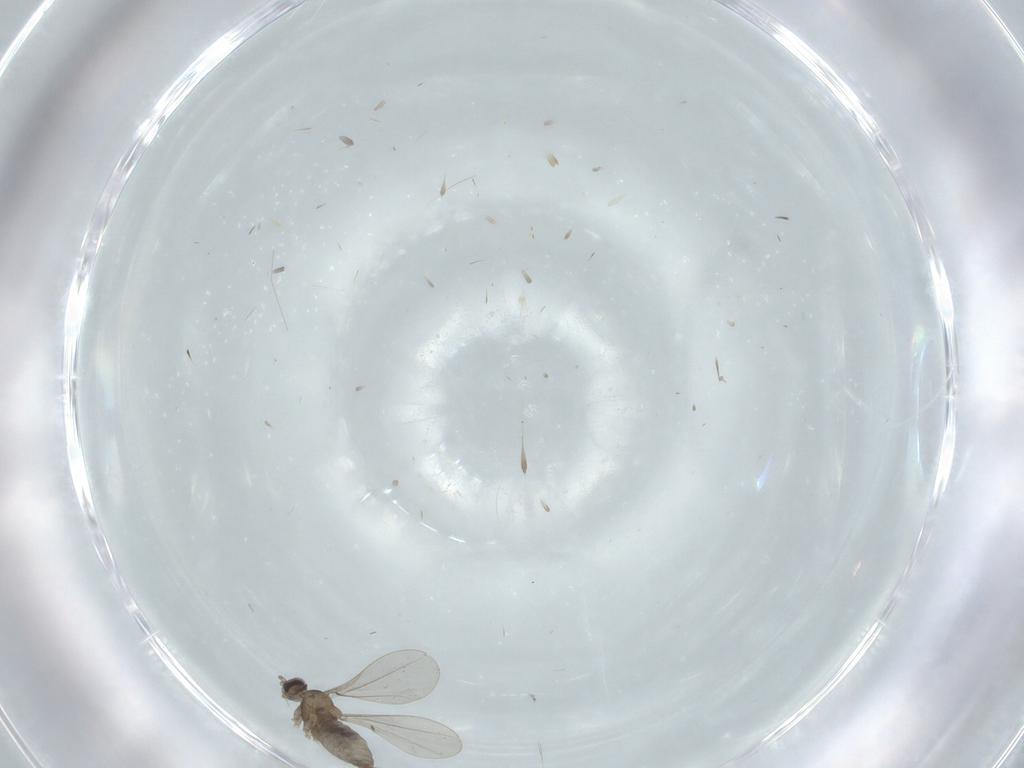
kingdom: Animalia
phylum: Arthropoda
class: Insecta
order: Diptera
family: Cecidomyiidae
